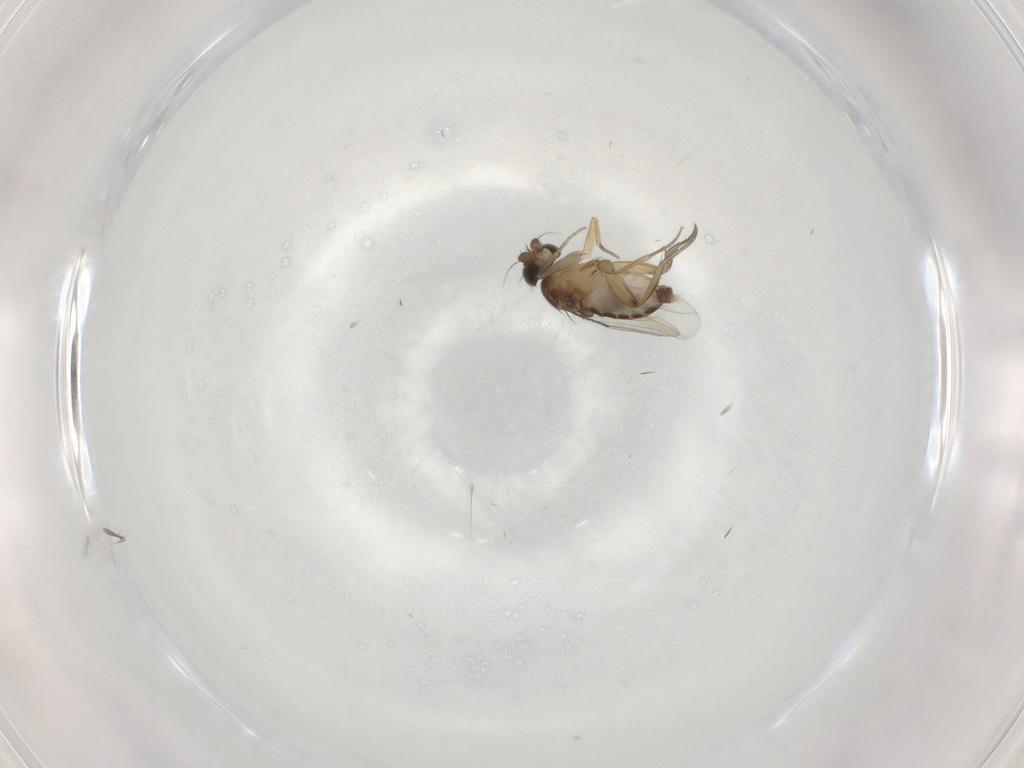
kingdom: Animalia
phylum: Arthropoda
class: Insecta
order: Diptera
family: Phoridae
